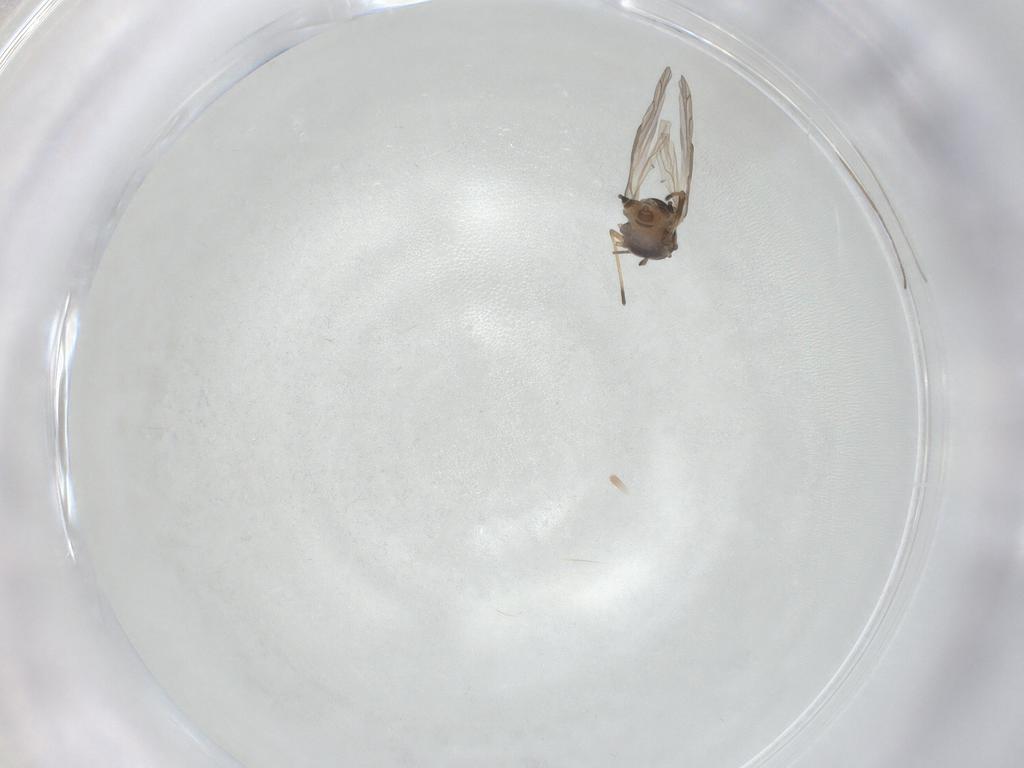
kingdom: Animalia
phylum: Arthropoda
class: Insecta
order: Hemiptera
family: Aphididae
